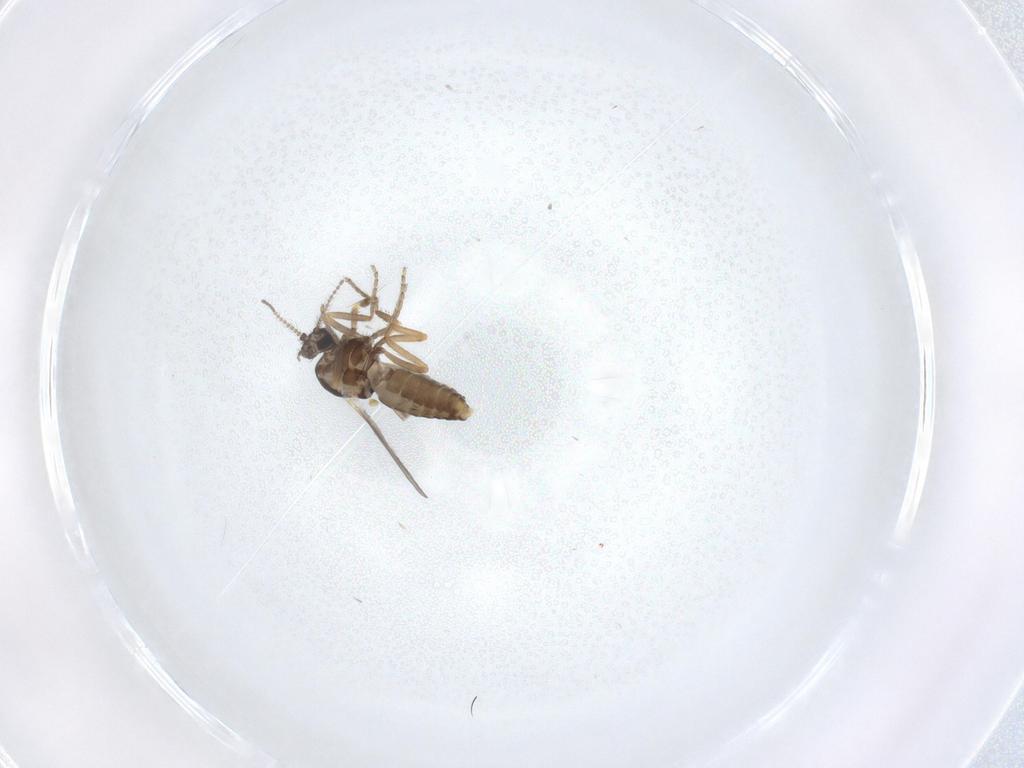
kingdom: Animalia
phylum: Arthropoda
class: Insecta
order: Diptera
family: Ceratopogonidae
